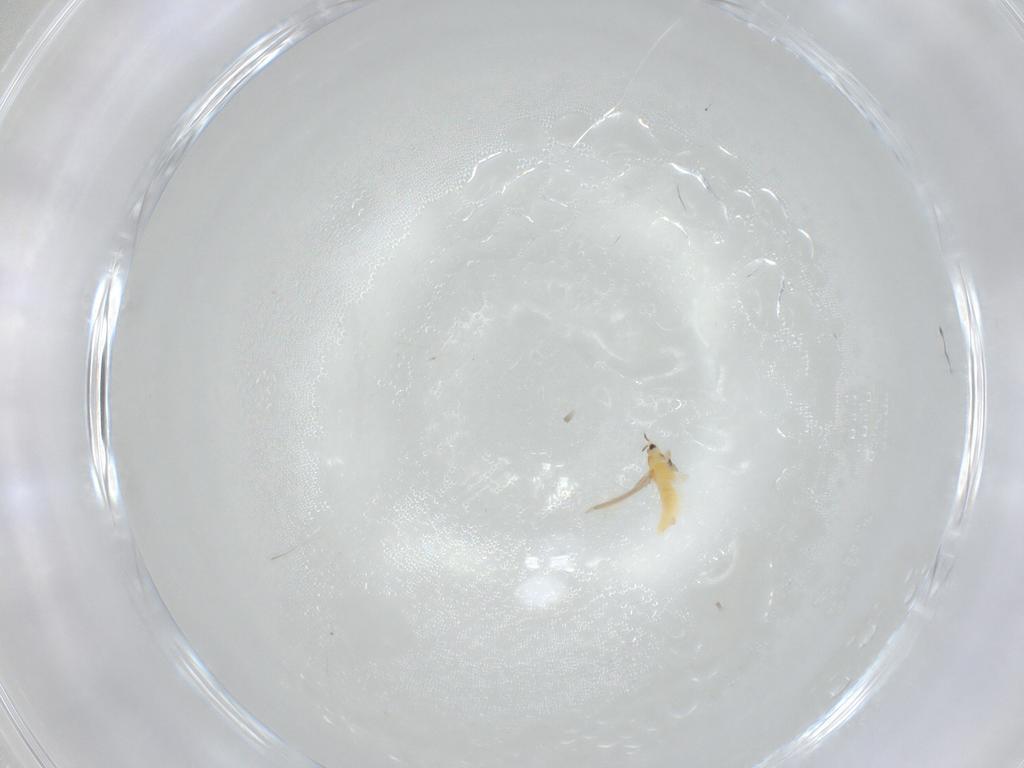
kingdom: Animalia
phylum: Arthropoda
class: Insecta
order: Thysanoptera
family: Thripidae
